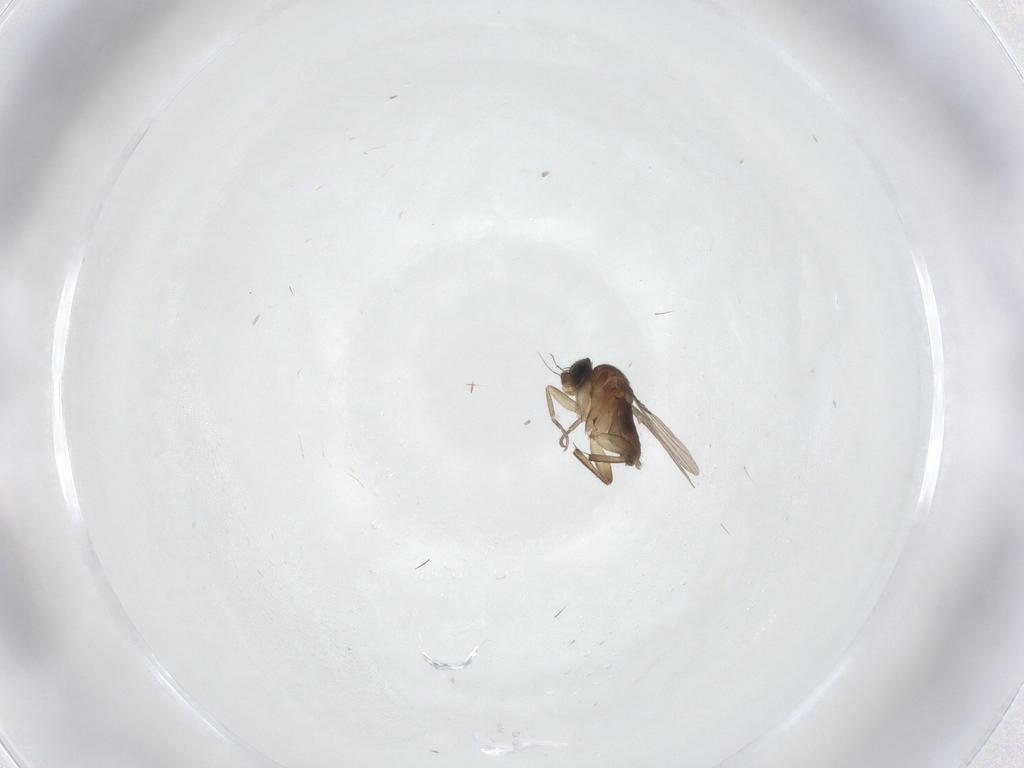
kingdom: Animalia
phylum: Arthropoda
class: Insecta
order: Diptera
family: Phoridae
